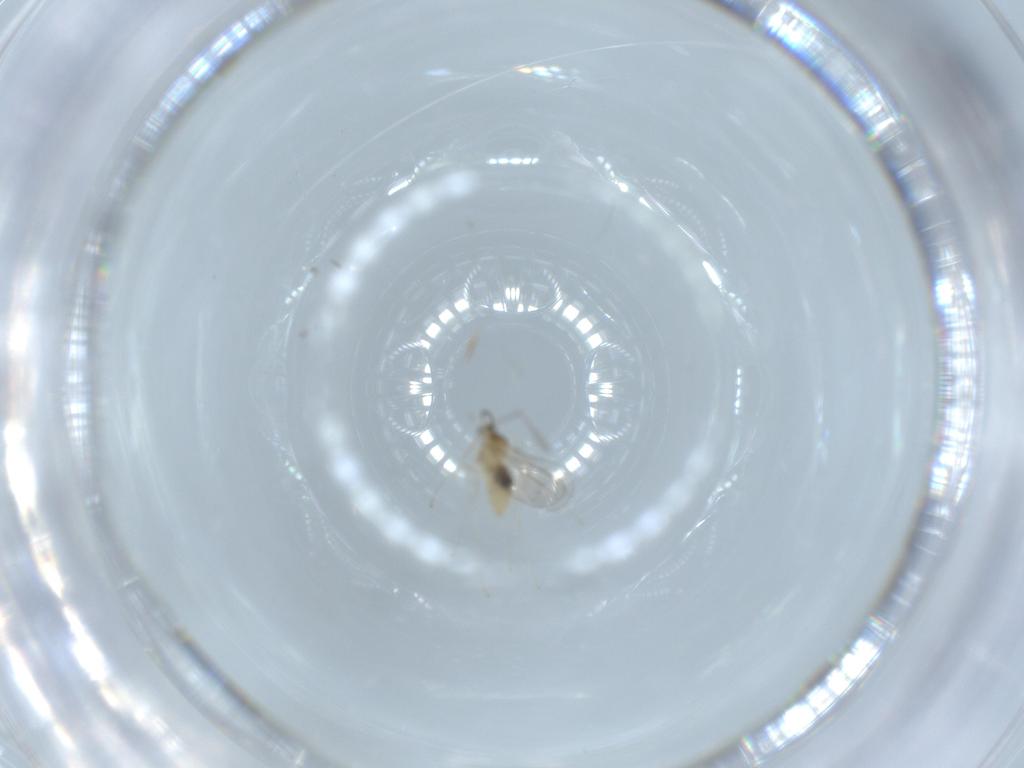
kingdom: Animalia
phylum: Arthropoda
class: Insecta
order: Diptera
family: Cecidomyiidae
